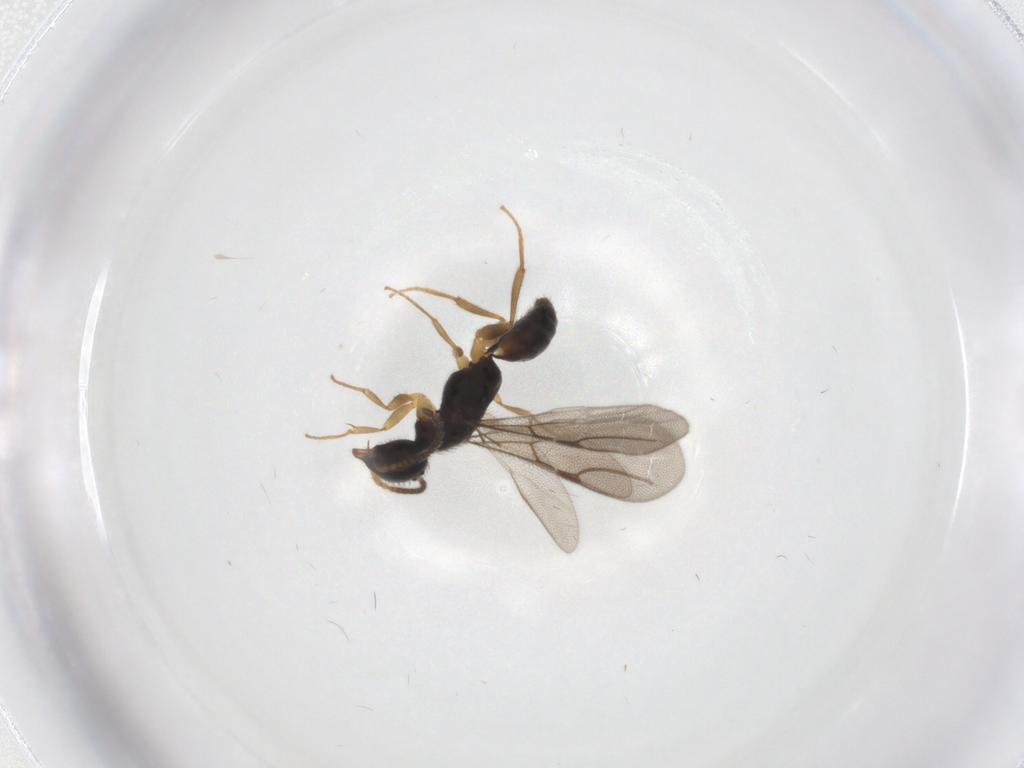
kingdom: Animalia
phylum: Arthropoda
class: Insecta
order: Hymenoptera
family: Bethylidae
